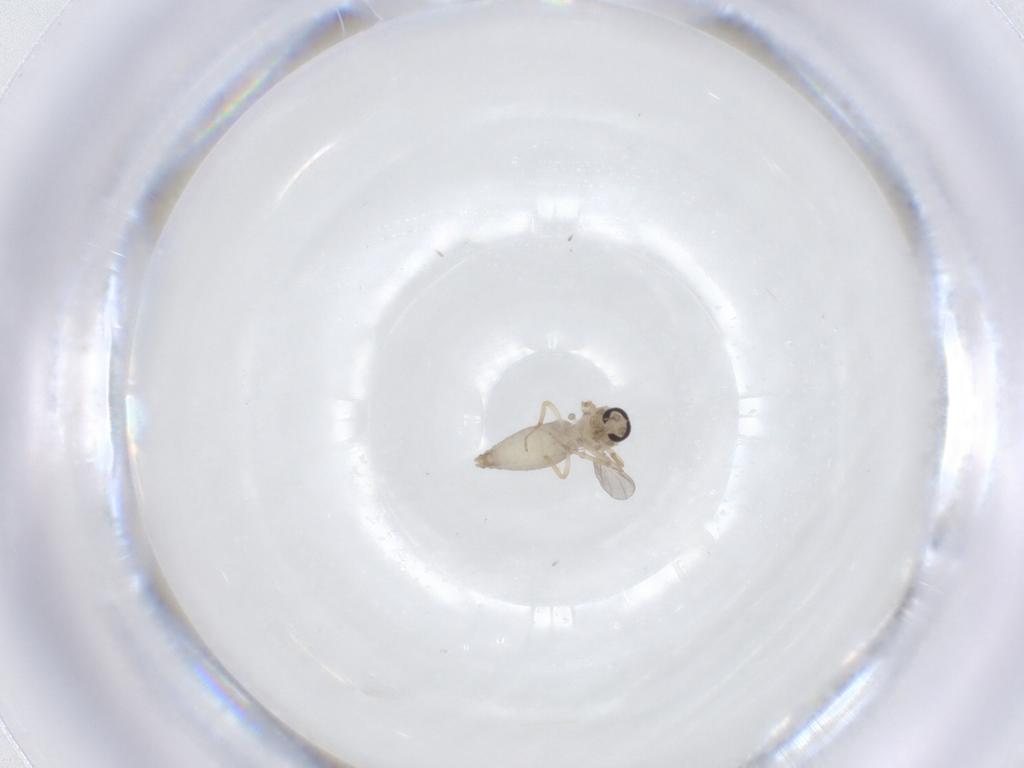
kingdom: Animalia
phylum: Arthropoda
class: Insecta
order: Diptera
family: Ceratopogonidae
